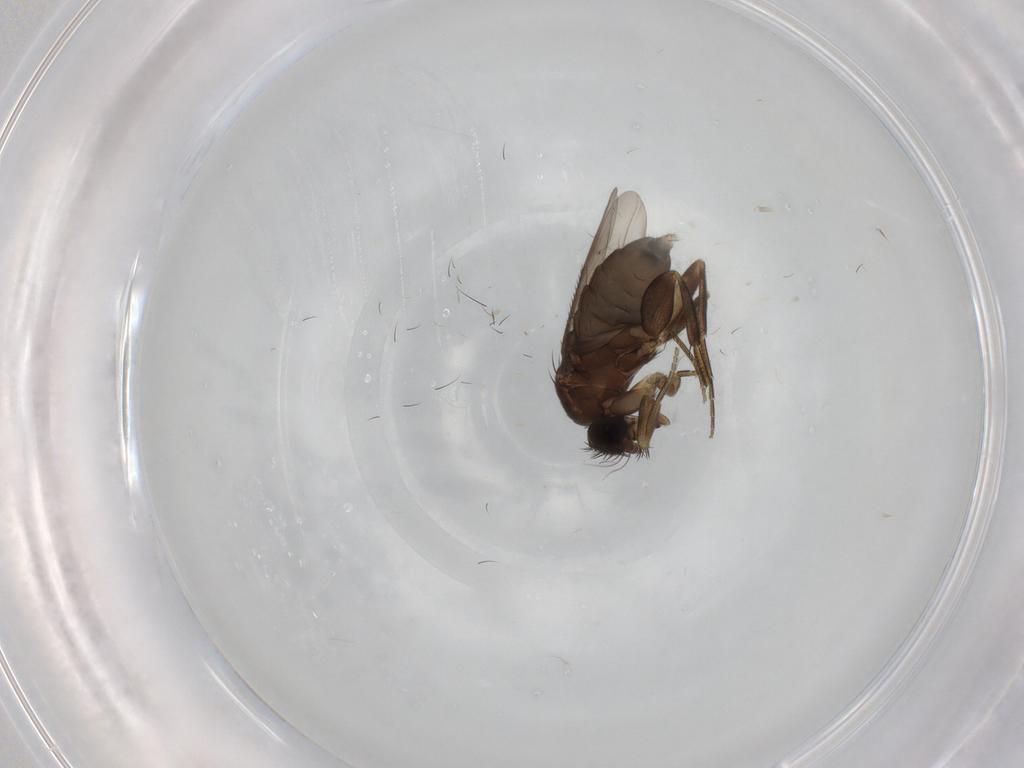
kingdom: Animalia
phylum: Arthropoda
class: Insecta
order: Diptera
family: Phoridae
